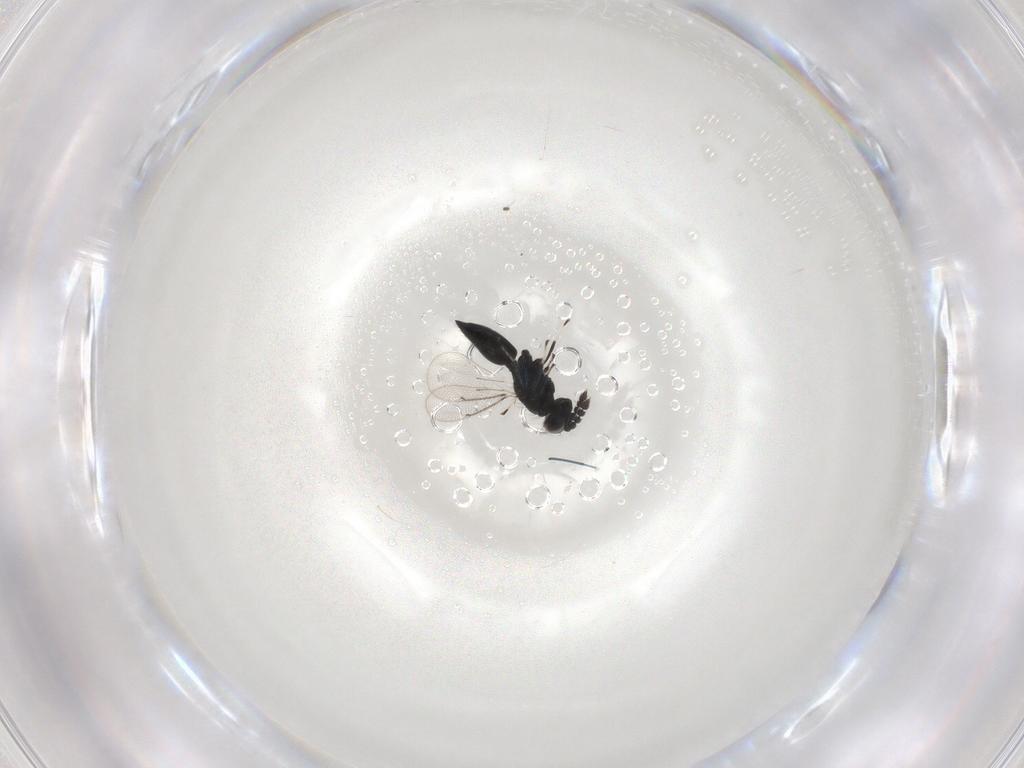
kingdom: Animalia
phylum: Arthropoda
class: Insecta
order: Hymenoptera
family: Eulophidae
